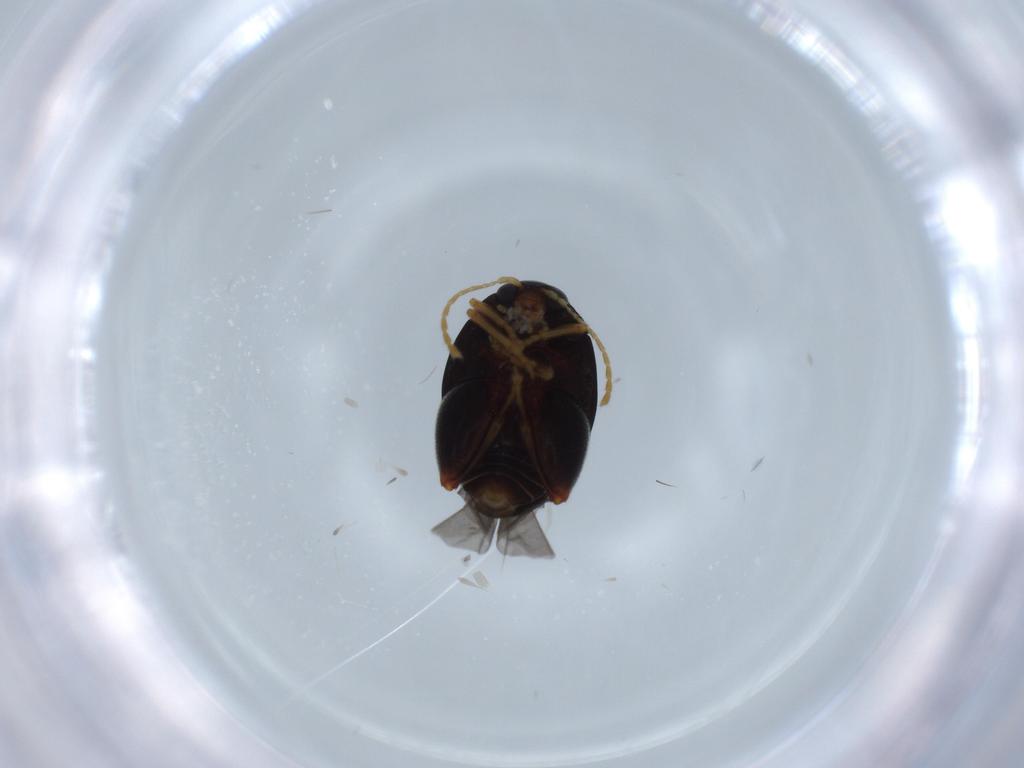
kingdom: Animalia
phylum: Arthropoda
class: Insecta
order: Coleoptera
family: Chrysomelidae
